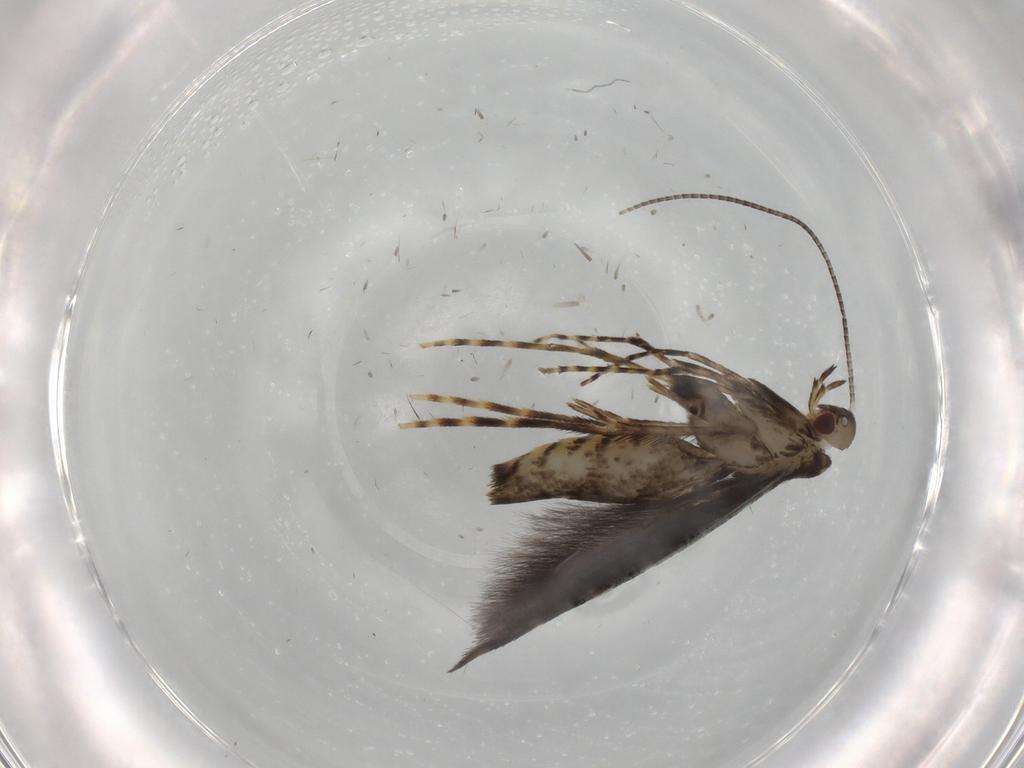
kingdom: Animalia
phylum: Arthropoda
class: Insecta
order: Lepidoptera
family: Gracillariidae
